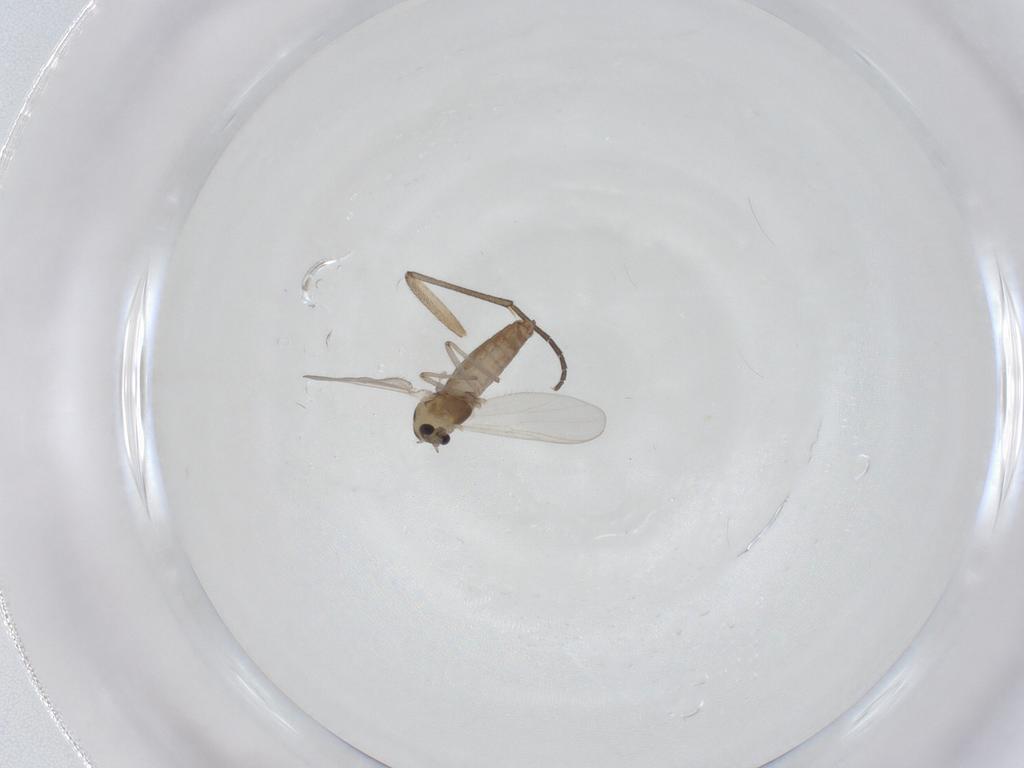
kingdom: Animalia
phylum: Arthropoda
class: Insecta
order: Diptera
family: Chironomidae
